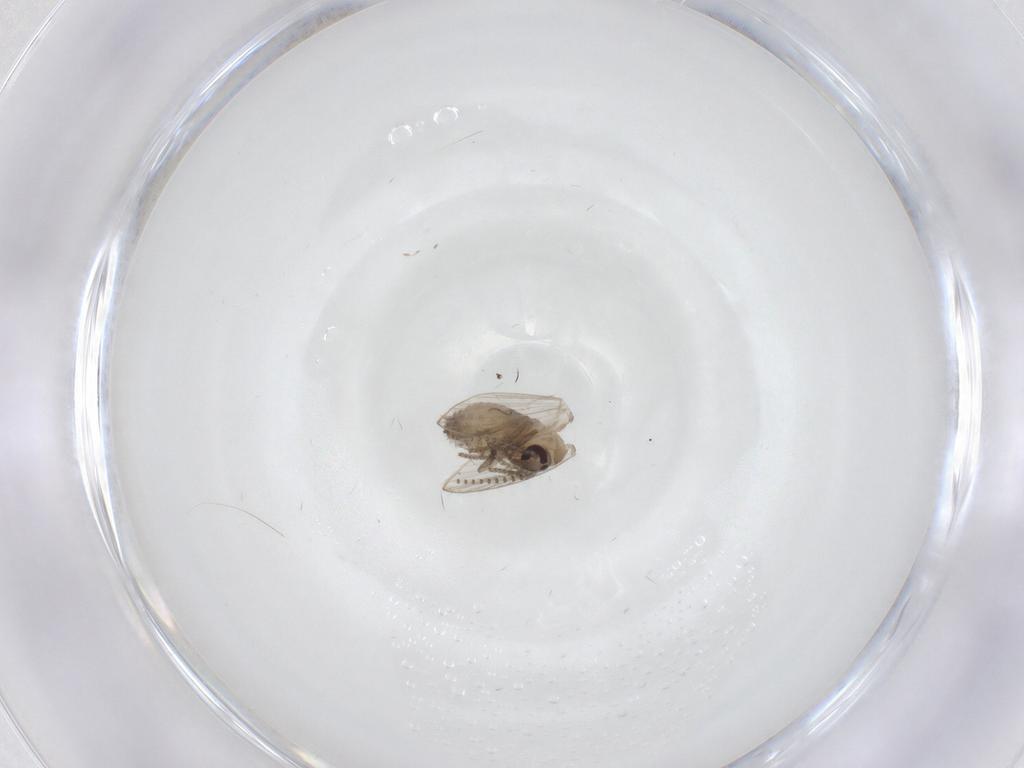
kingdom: Animalia
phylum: Arthropoda
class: Insecta
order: Diptera
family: Psychodidae
